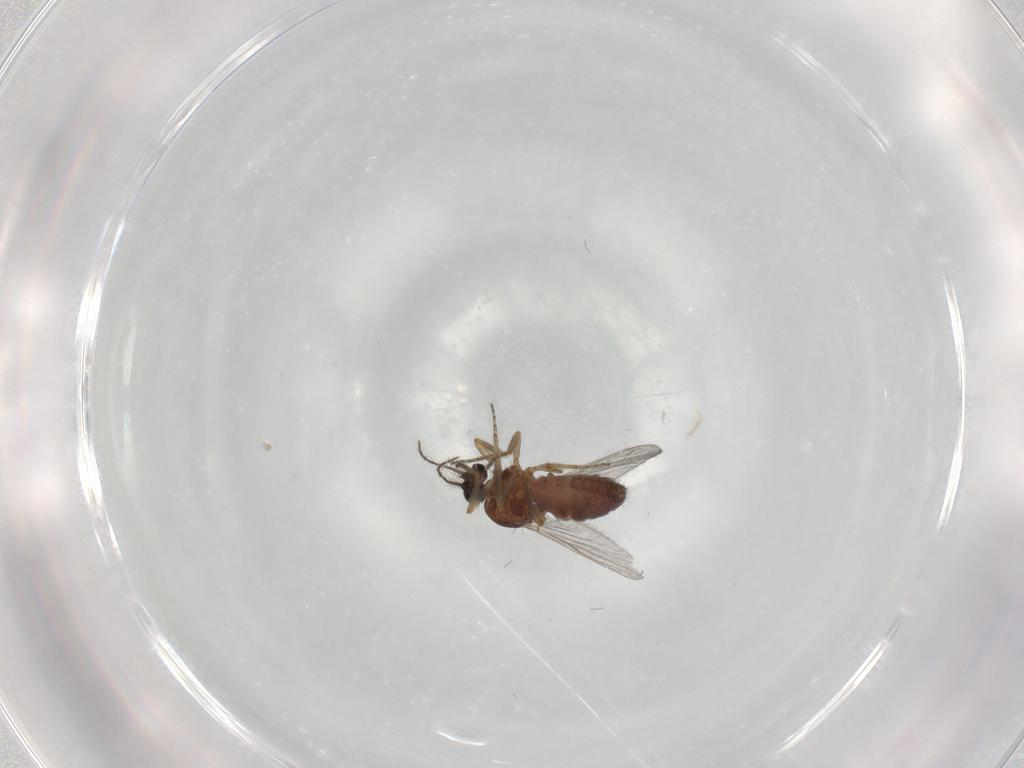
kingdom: Animalia
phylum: Arthropoda
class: Insecta
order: Diptera
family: Ceratopogonidae
